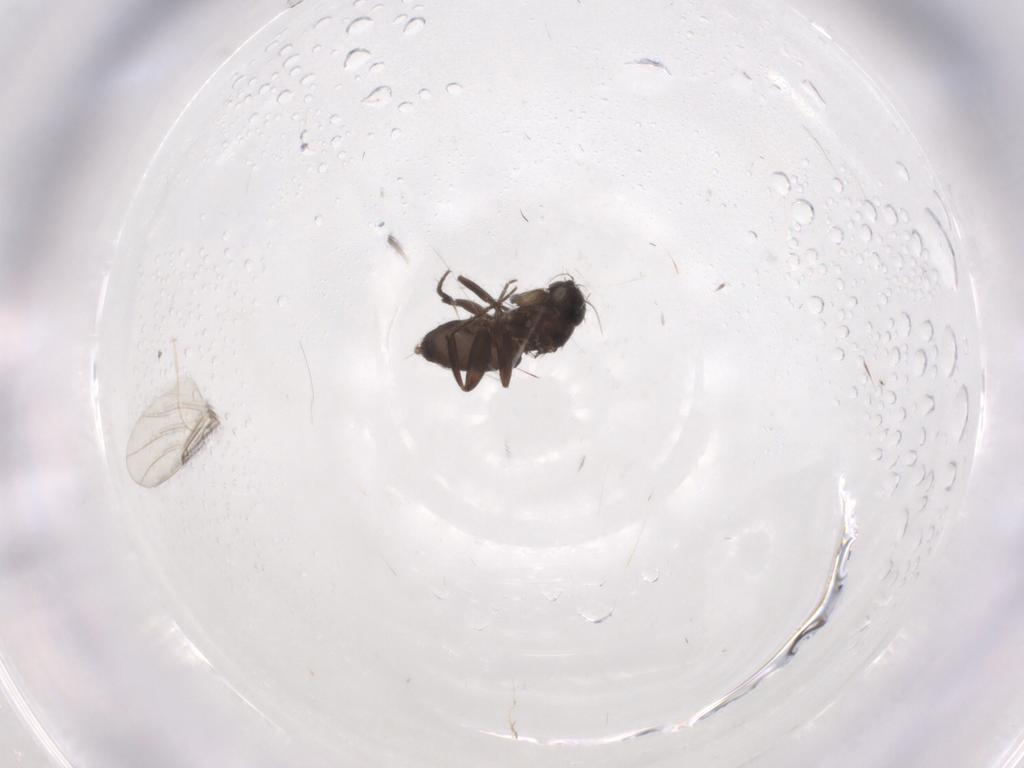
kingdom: Animalia
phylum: Arthropoda
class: Insecta
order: Diptera
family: Phoridae
